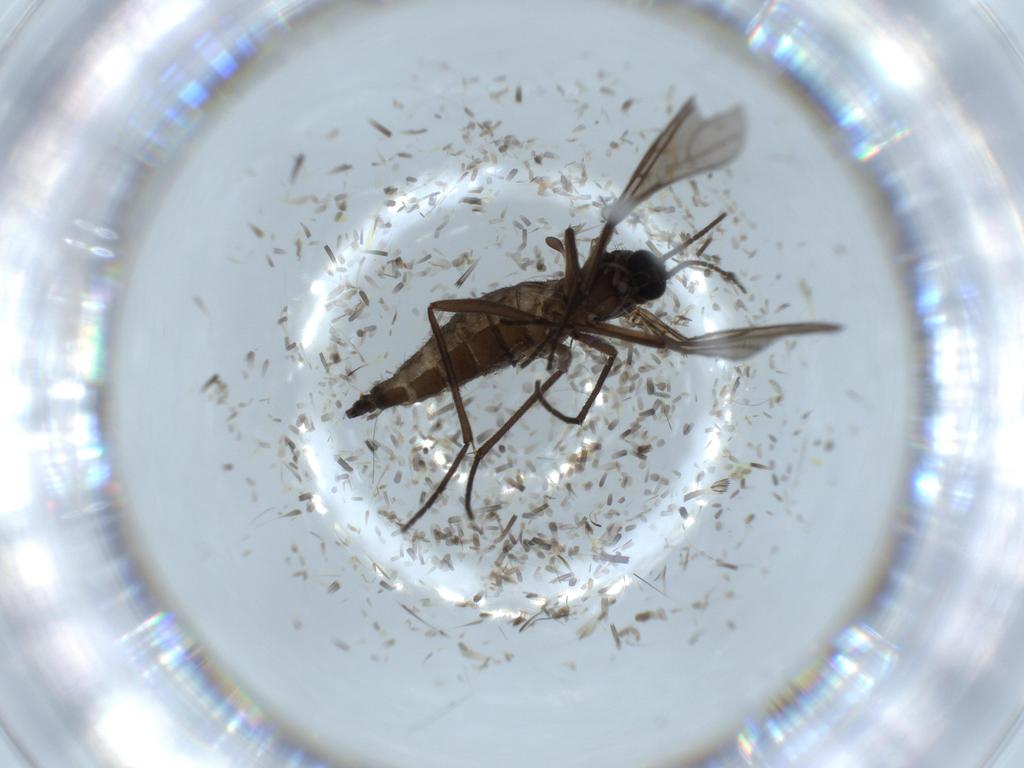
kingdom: Animalia
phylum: Arthropoda
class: Insecta
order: Diptera
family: Sciaridae
